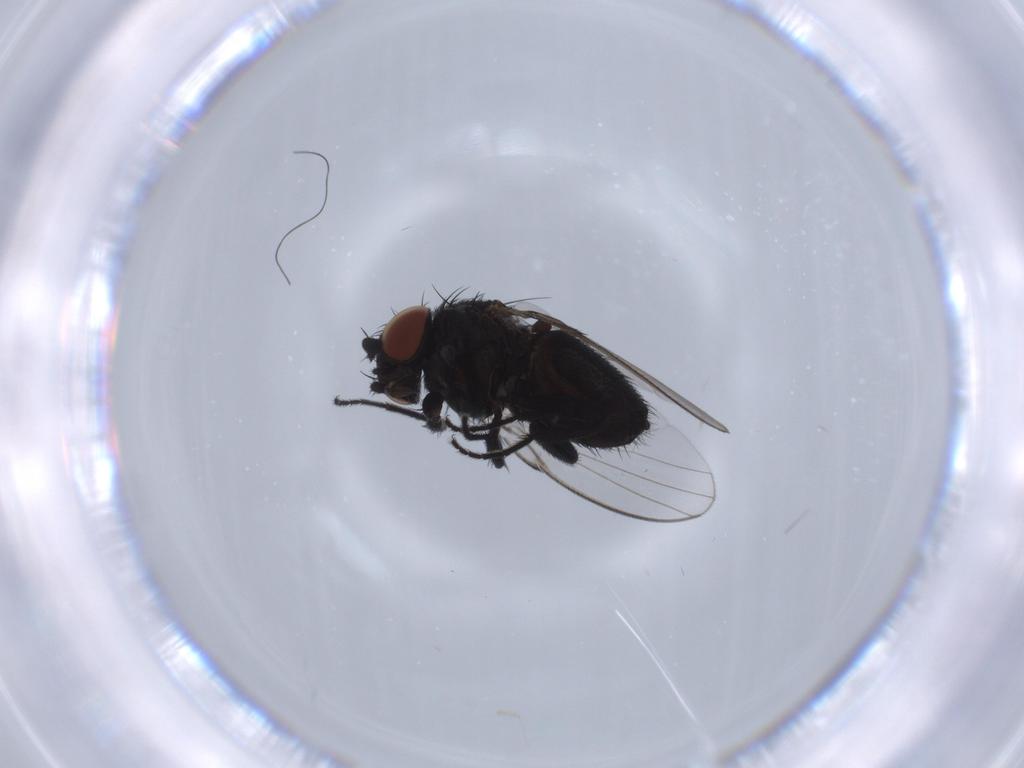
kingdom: Animalia
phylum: Arthropoda
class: Insecta
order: Diptera
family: Milichiidae
